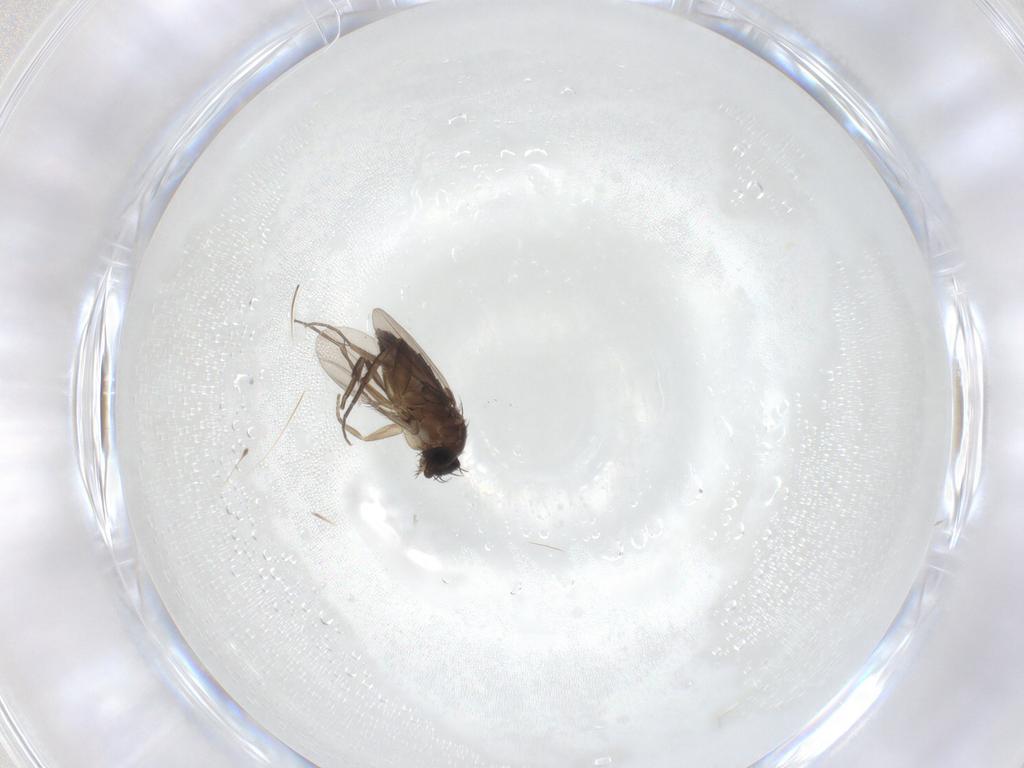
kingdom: Animalia
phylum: Arthropoda
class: Insecta
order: Diptera
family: Phoridae
